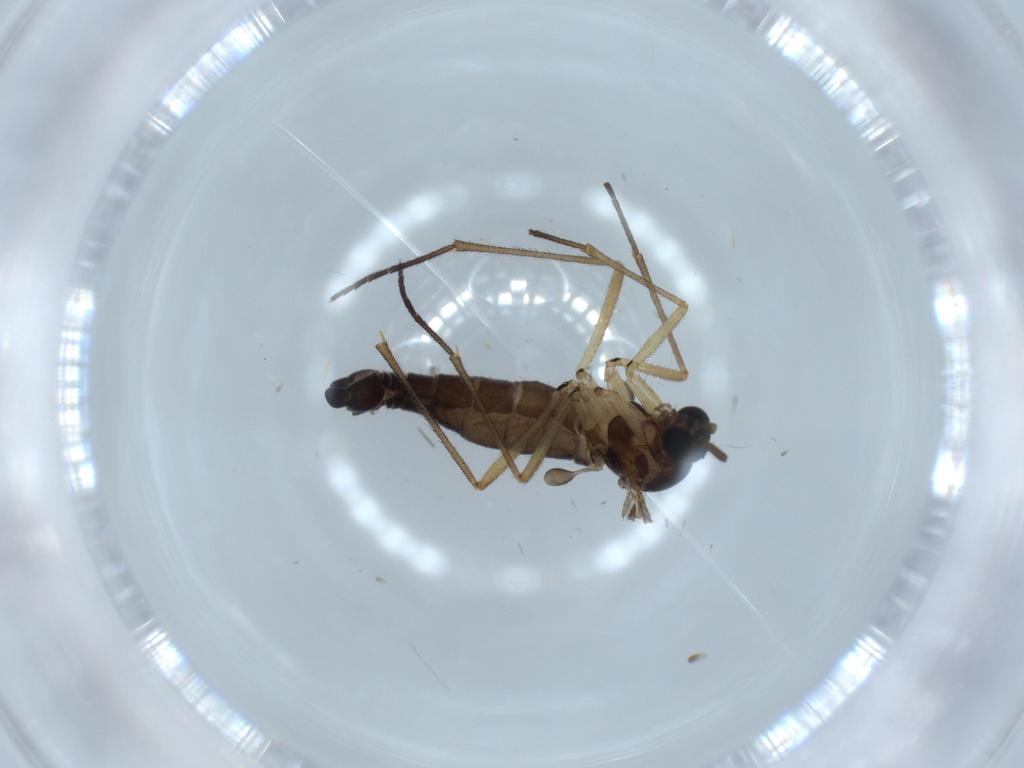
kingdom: Animalia
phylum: Arthropoda
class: Insecta
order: Diptera
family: Sciaridae
